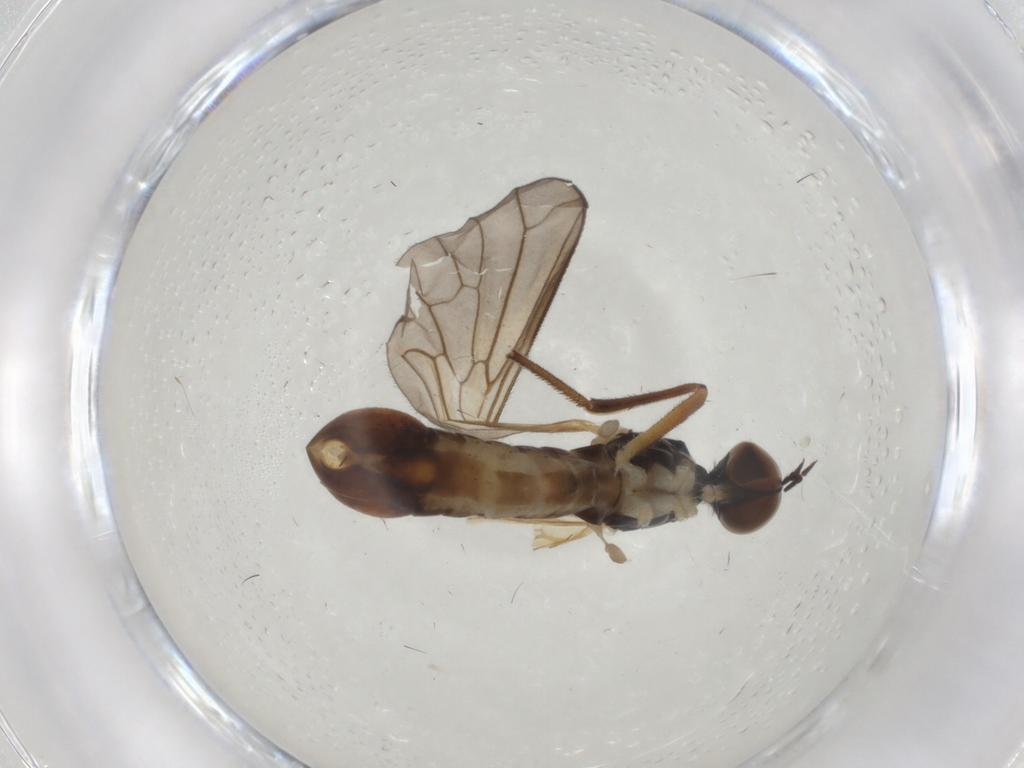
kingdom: Animalia
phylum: Arthropoda
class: Insecta
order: Diptera
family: Brachystomatidae
